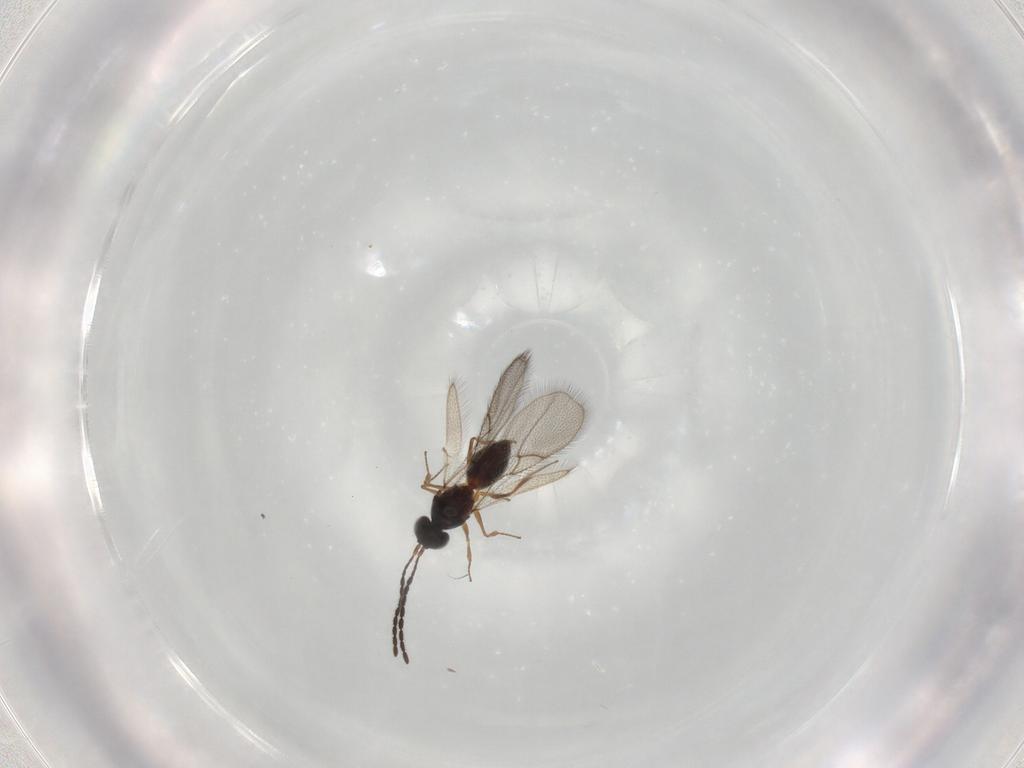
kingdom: Animalia
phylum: Arthropoda
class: Insecta
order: Hymenoptera
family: Figitidae
